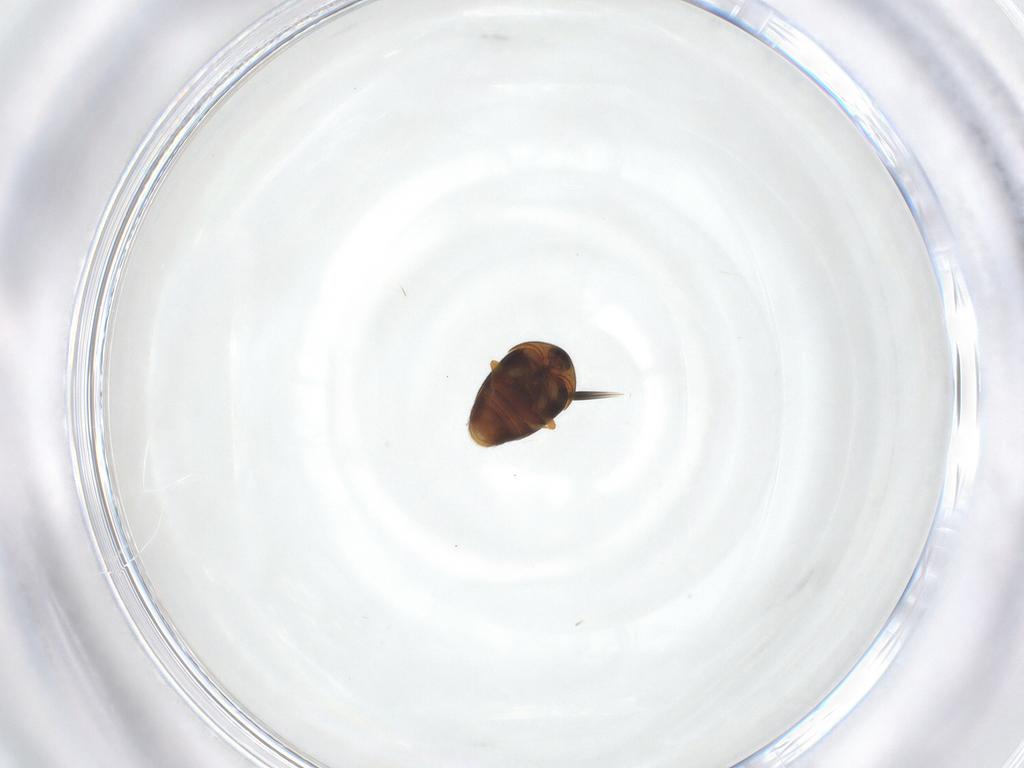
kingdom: Animalia
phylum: Arthropoda
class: Insecta
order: Coleoptera
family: Corylophidae
